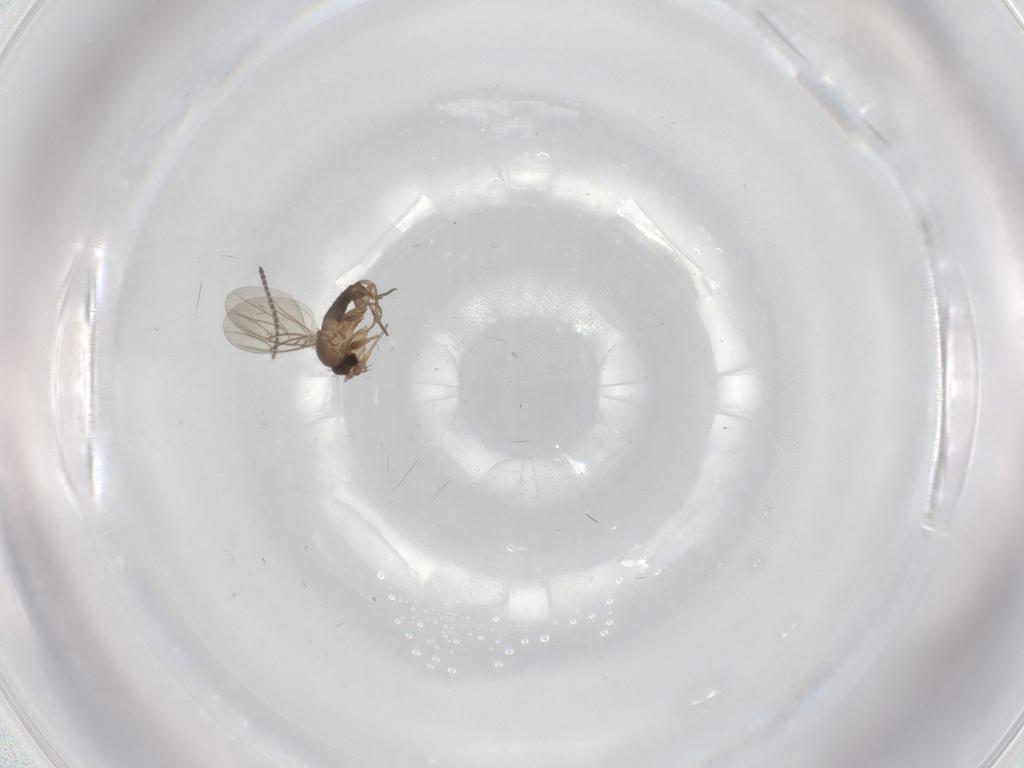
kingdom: Animalia
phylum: Arthropoda
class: Insecta
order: Diptera
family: Phoridae
